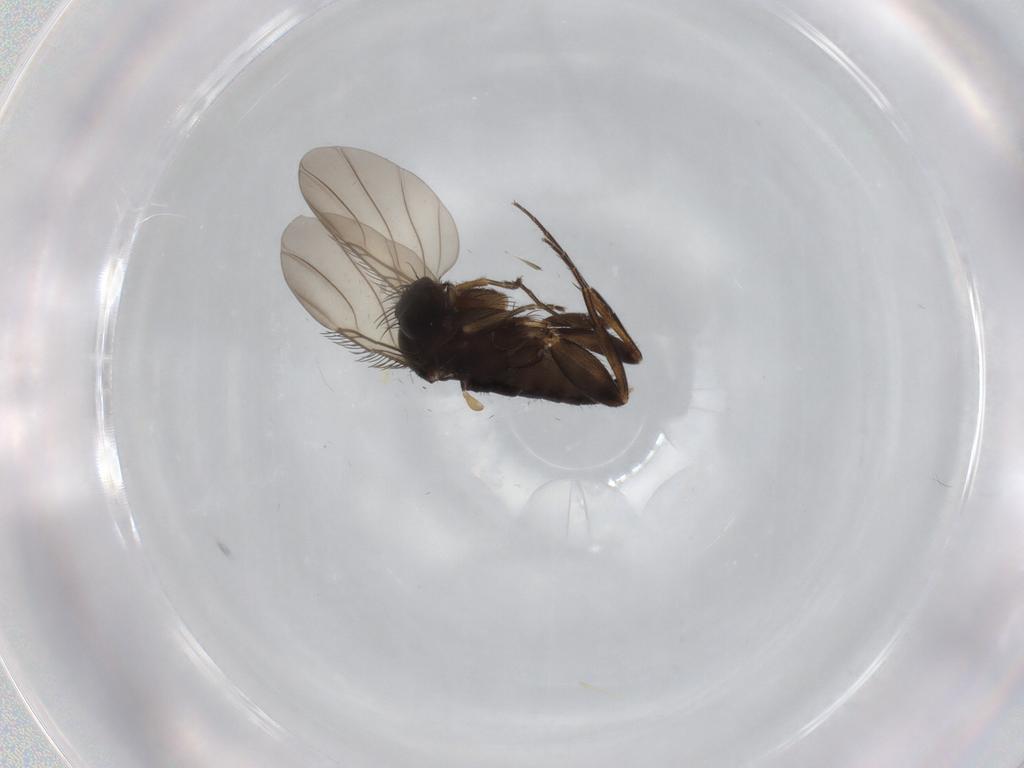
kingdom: Animalia
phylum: Arthropoda
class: Insecta
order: Diptera
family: Phoridae
